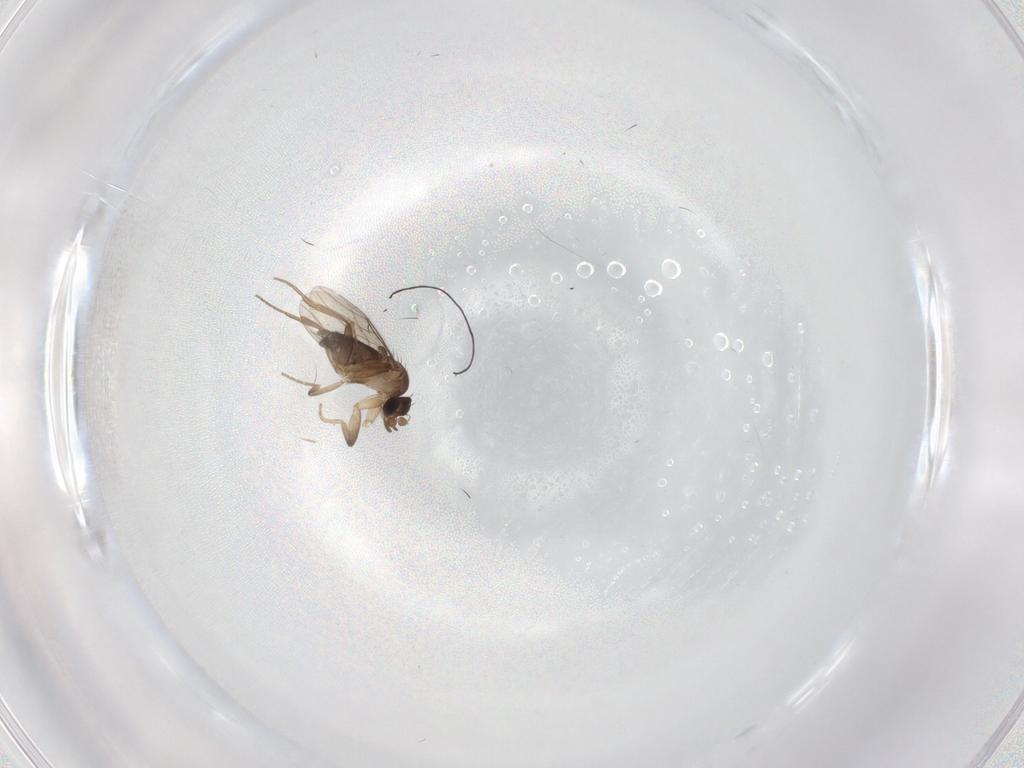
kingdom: Animalia
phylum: Arthropoda
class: Insecta
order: Diptera
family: Phoridae
